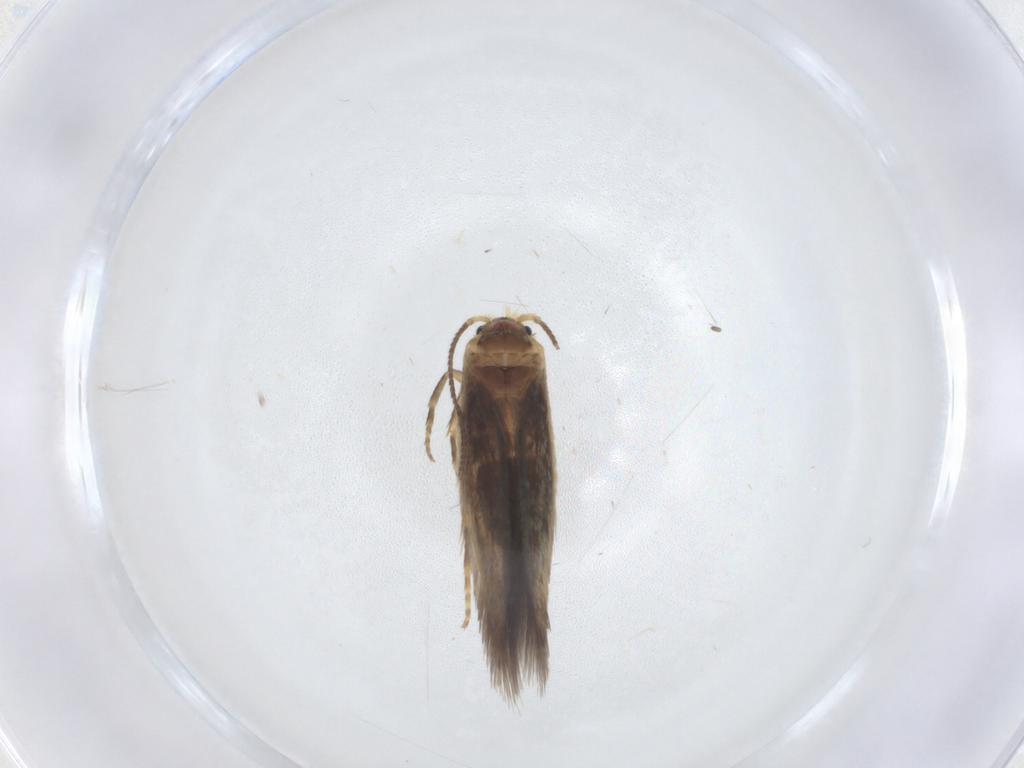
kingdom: Animalia
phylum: Arthropoda
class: Insecta
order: Lepidoptera
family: Nepticulidae
